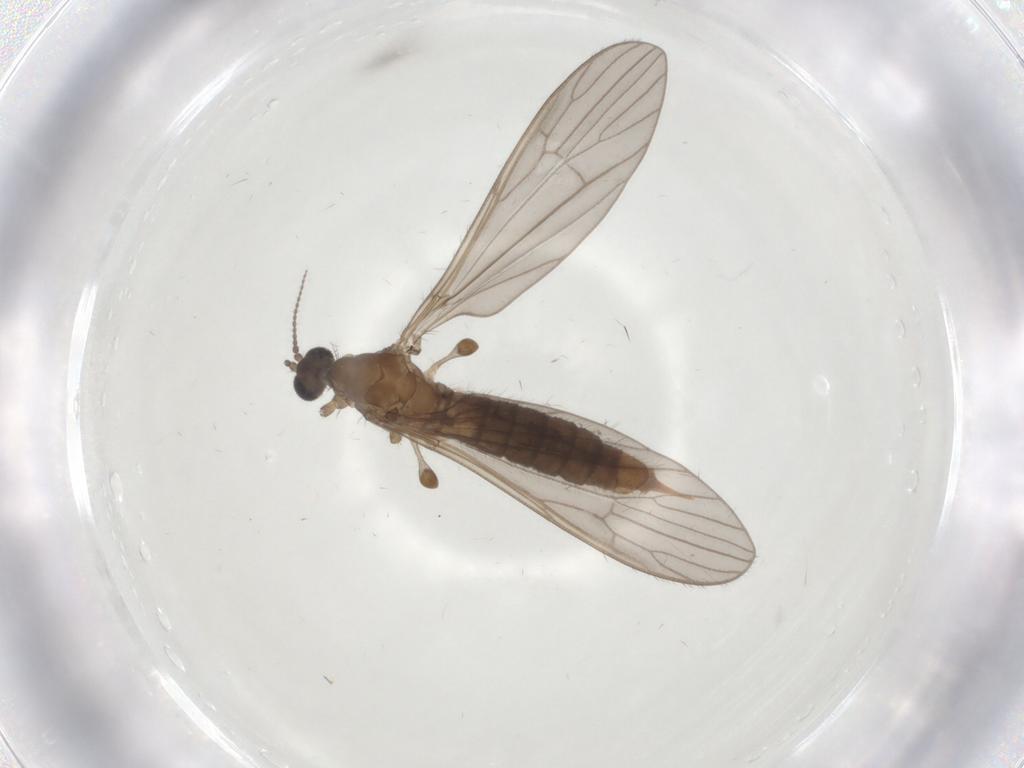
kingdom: Animalia
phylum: Arthropoda
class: Insecta
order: Diptera
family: Limoniidae
